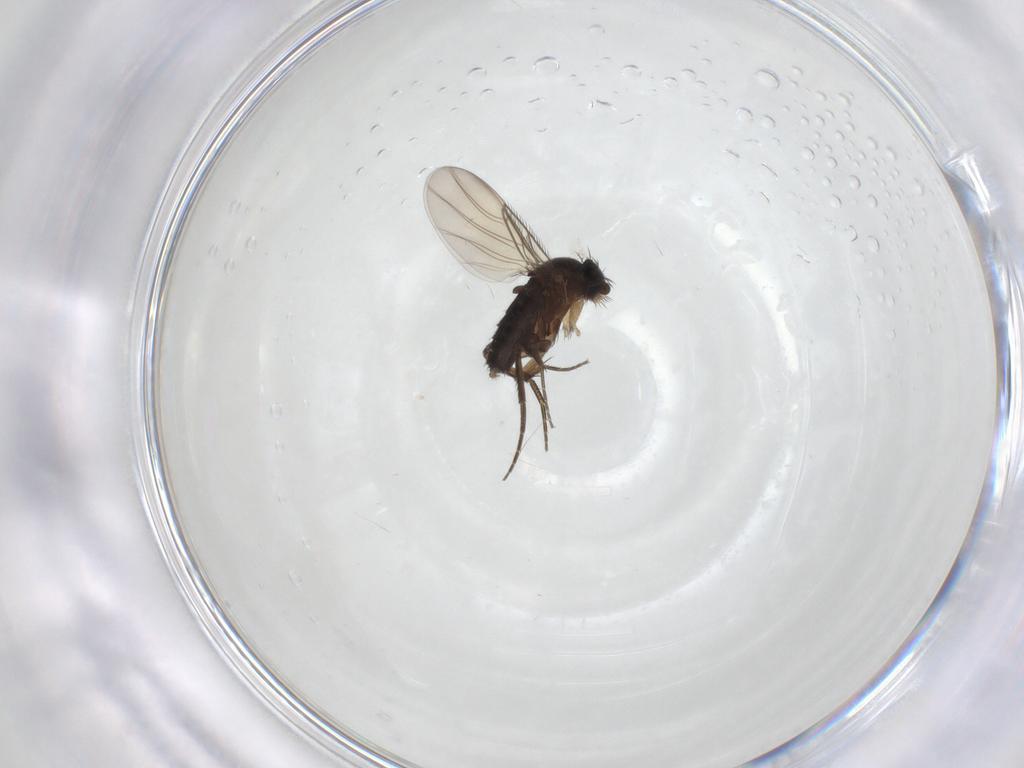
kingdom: Animalia
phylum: Arthropoda
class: Insecta
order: Diptera
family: Phoridae
